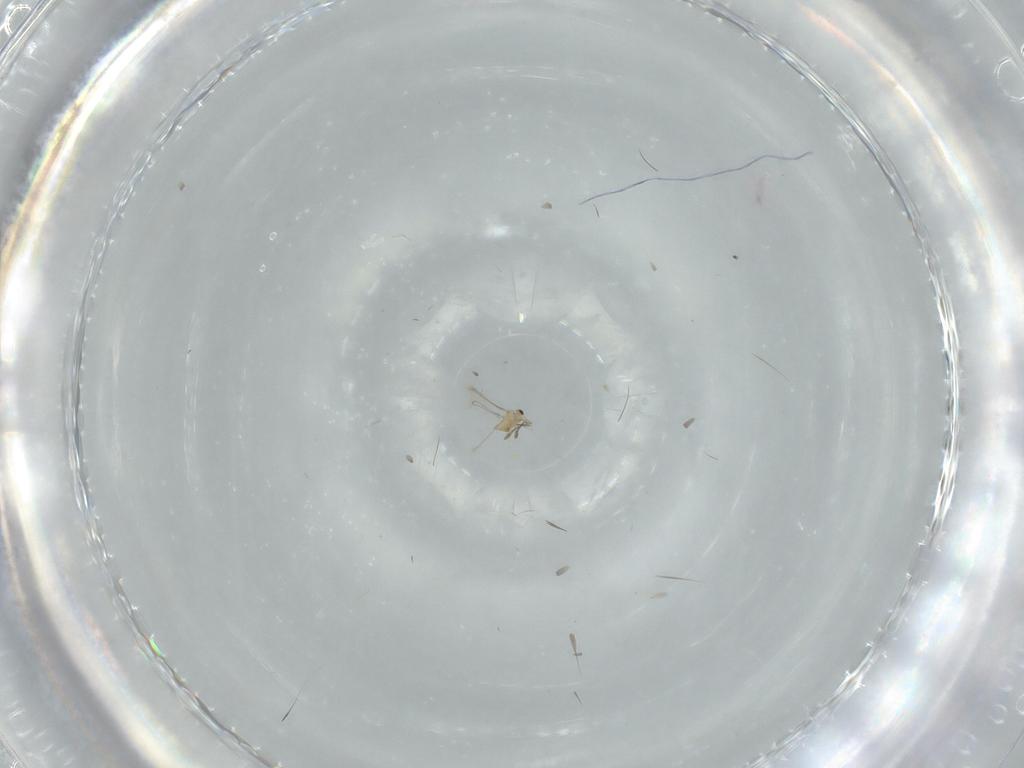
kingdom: Animalia
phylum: Arthropoda
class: Insecta
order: Hymenoptera
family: Mymaridae
